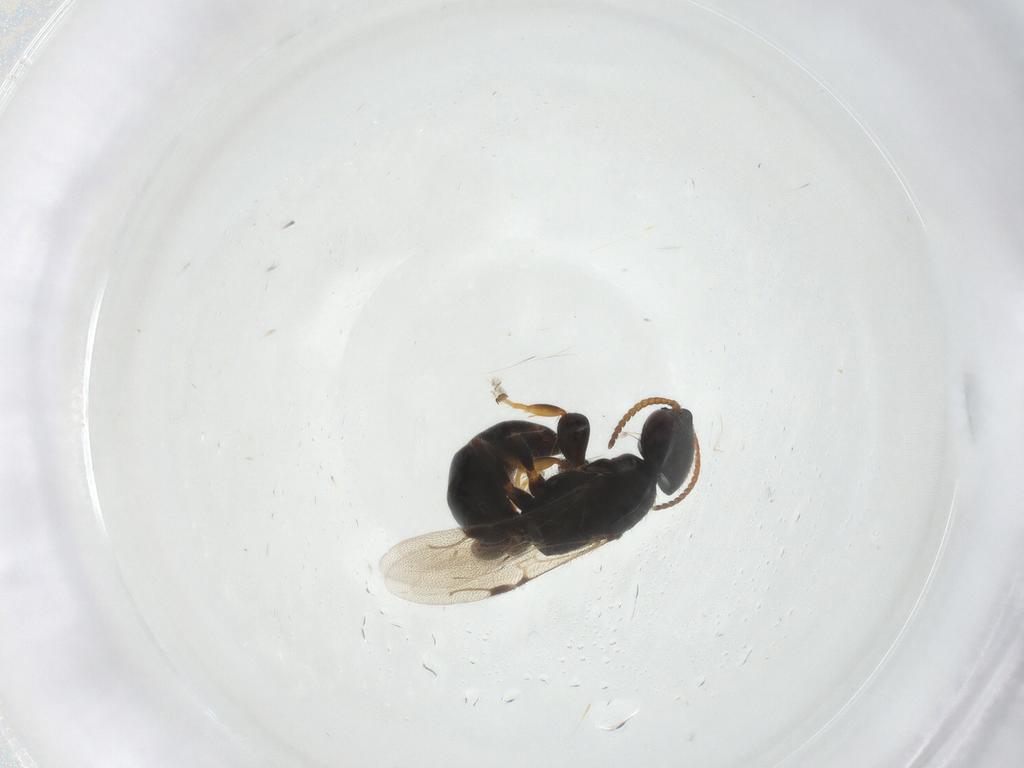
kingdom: Animalia
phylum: Arthropoda
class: Insecta
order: Hymenoptera
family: Bethylidae
